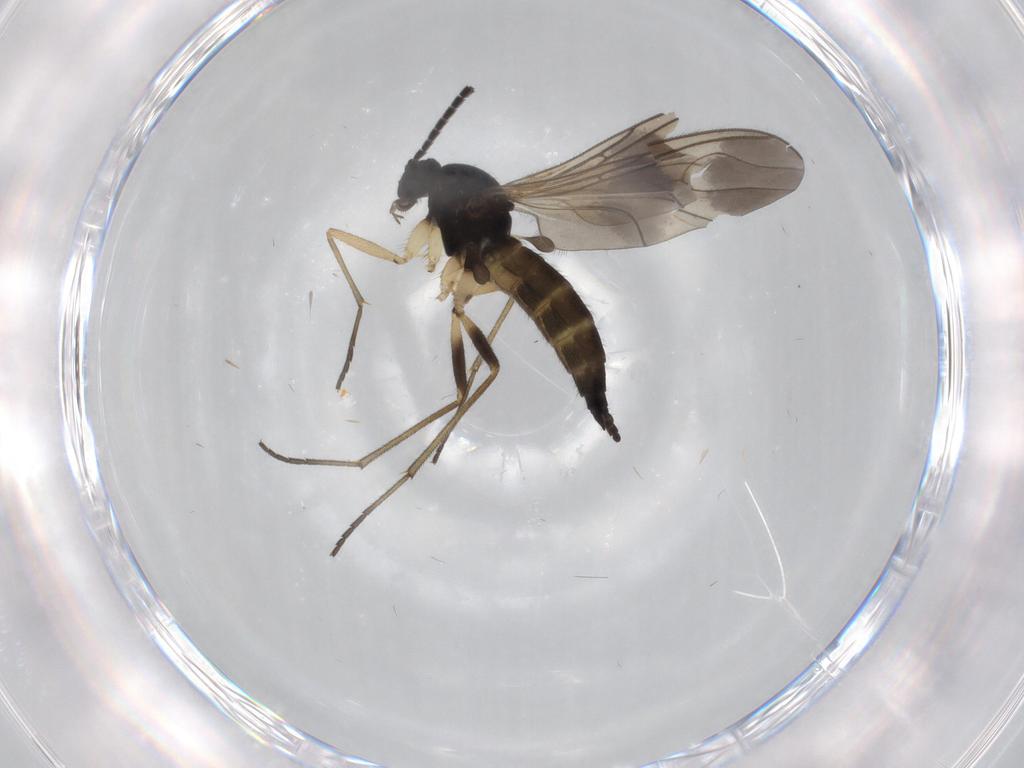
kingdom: Animalia
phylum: Arthropoda
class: Insecta
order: Diptera
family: Sciaridae
